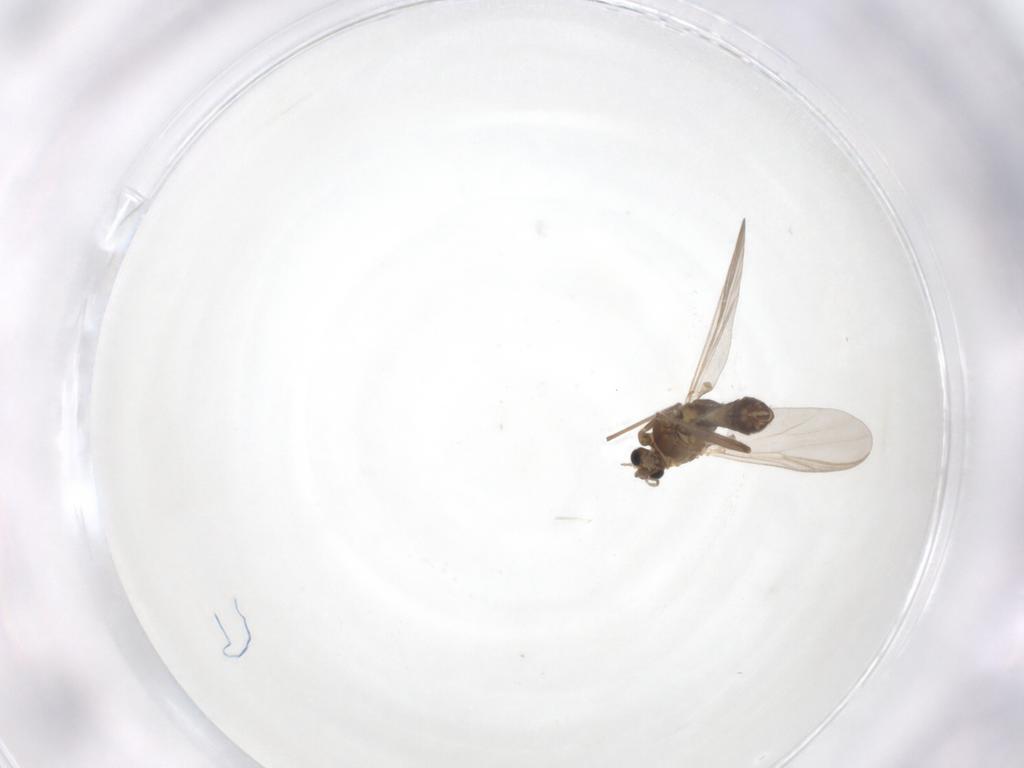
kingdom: Animalia
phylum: Arthropoda
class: Insecta
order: Diptera
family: Chironomidae
